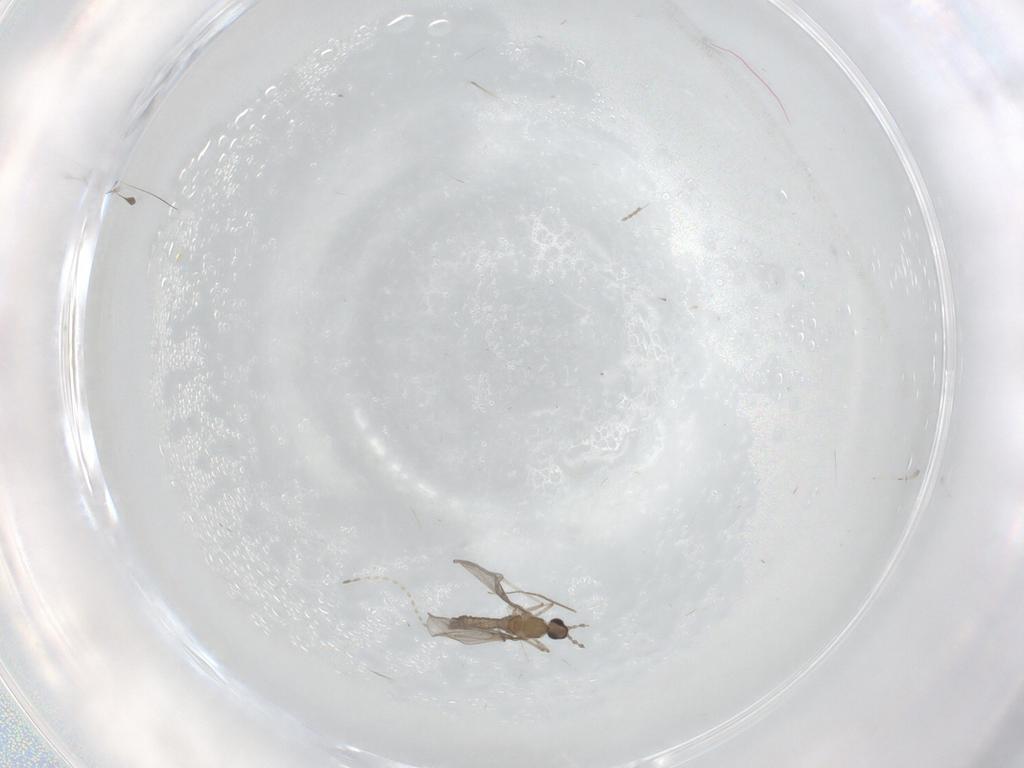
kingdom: Animalia
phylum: Arthropoda
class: Insecta
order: Diptera
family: Cecidomyiidae
